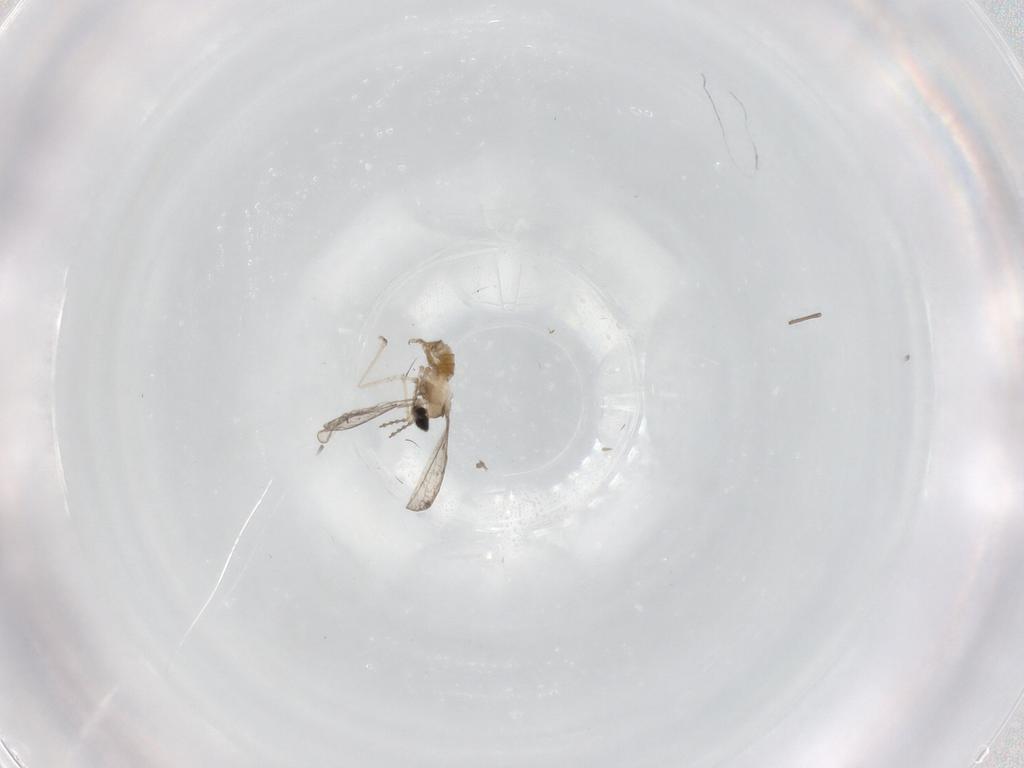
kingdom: Animalia
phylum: Arthropoda
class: Insecta
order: Diptera
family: Cecidomyiidae
